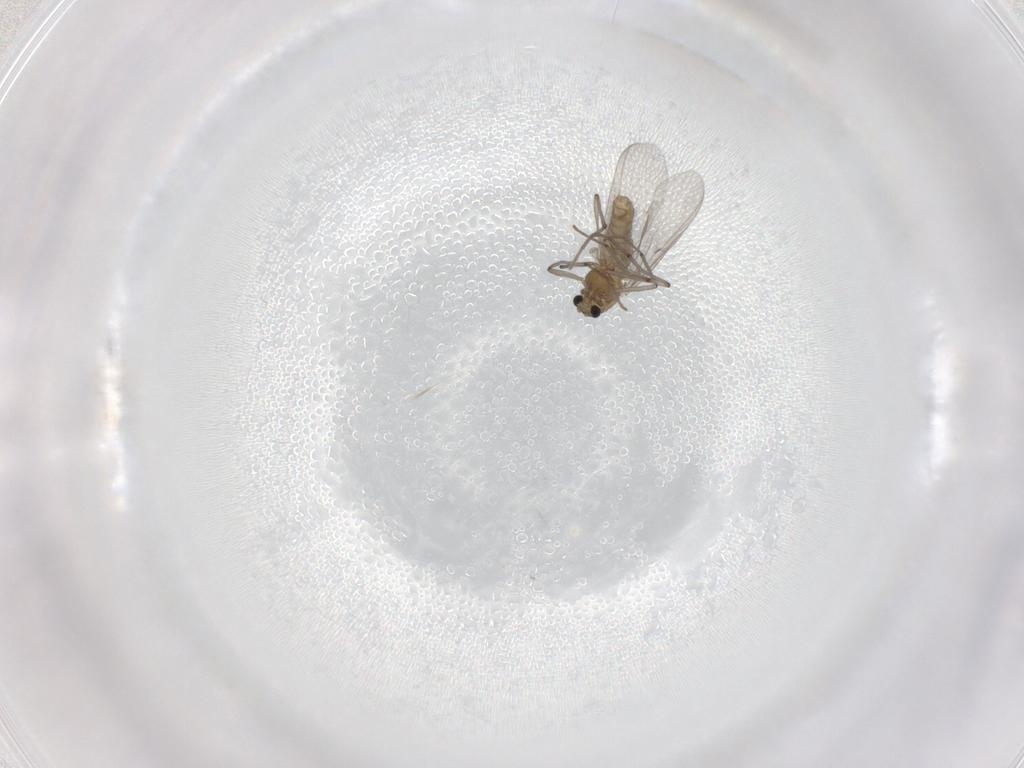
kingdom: Animalia
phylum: Arthropoda
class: Insecta
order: Diptera
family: Chironomidae
